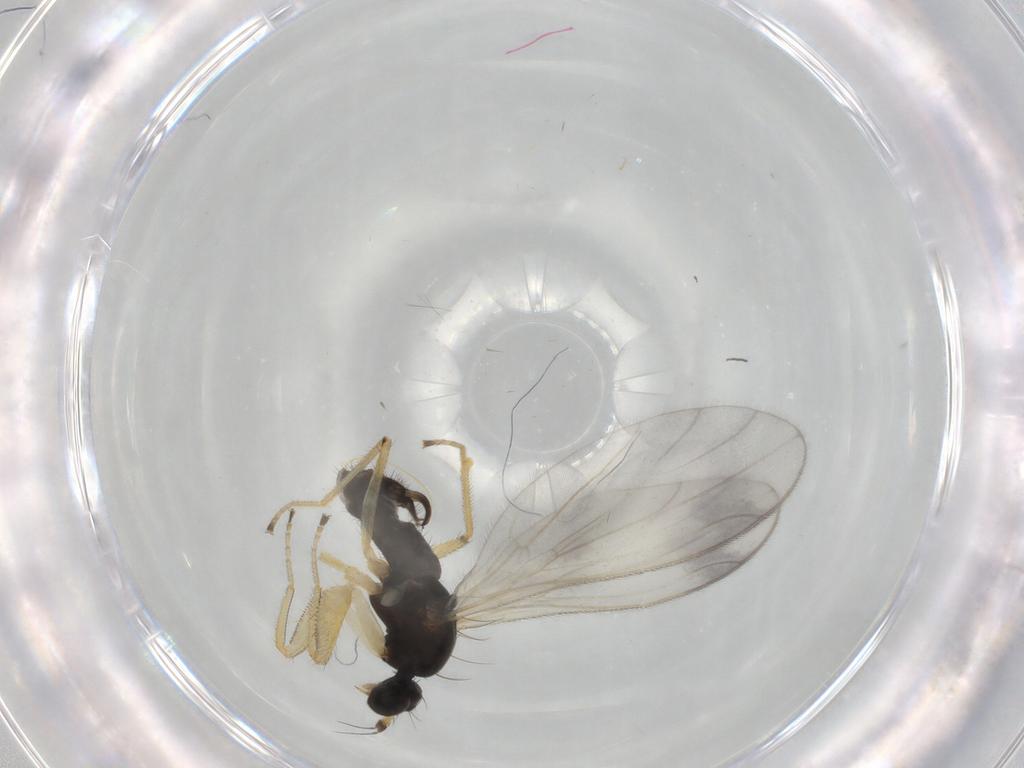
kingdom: Animalia
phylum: Arthropoda
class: Insecta
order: Diptera
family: Empididae
